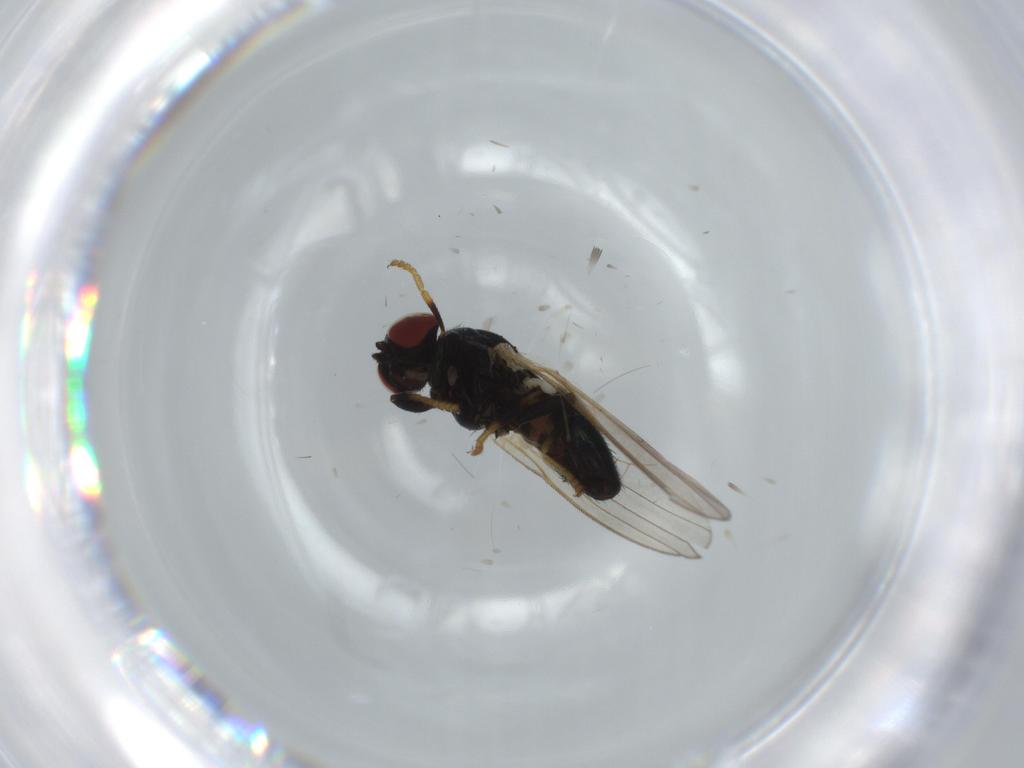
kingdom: Animalia
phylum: Arthropoda
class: Insecta
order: Diptera
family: Chamaemyiidae
